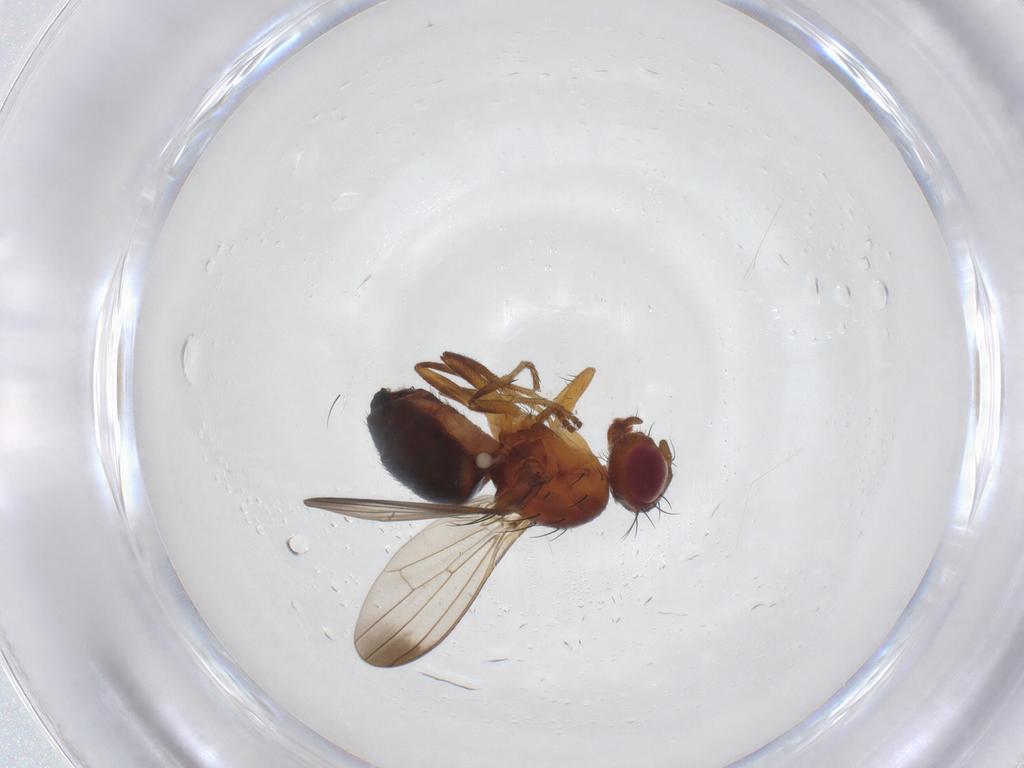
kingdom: Animalia
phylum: Arthropoda
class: Insecta
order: Diptera
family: Piophilidae
